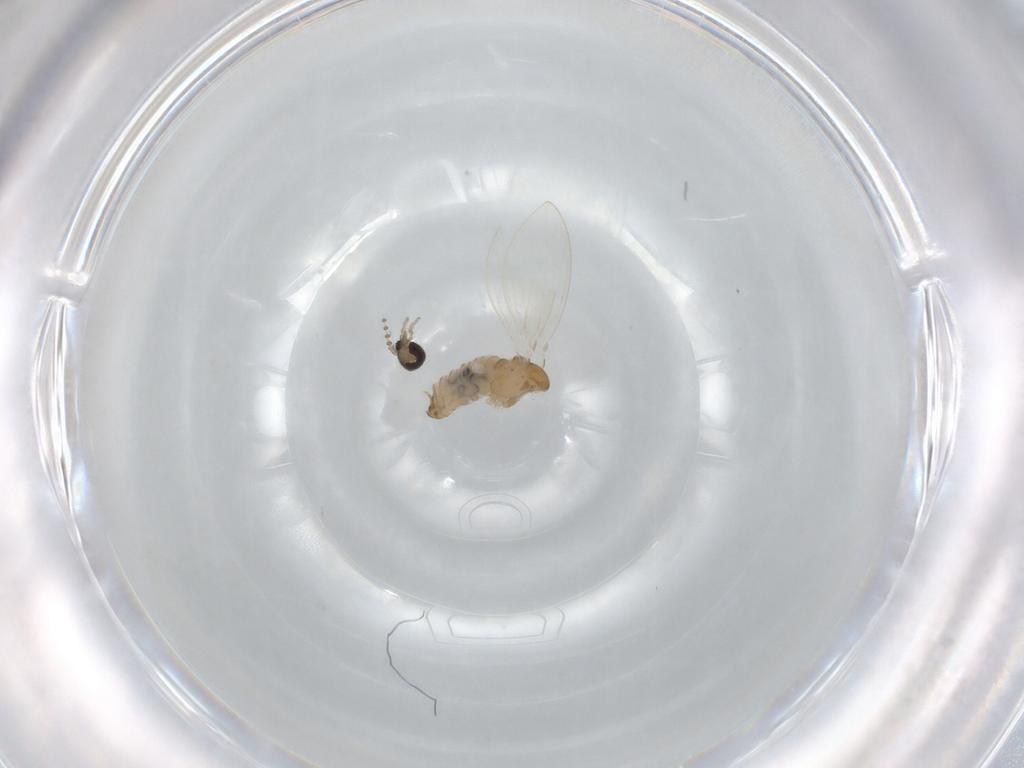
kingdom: Animalia
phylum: Arthropoda
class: Insecta
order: Diptera
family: Psychodidae
